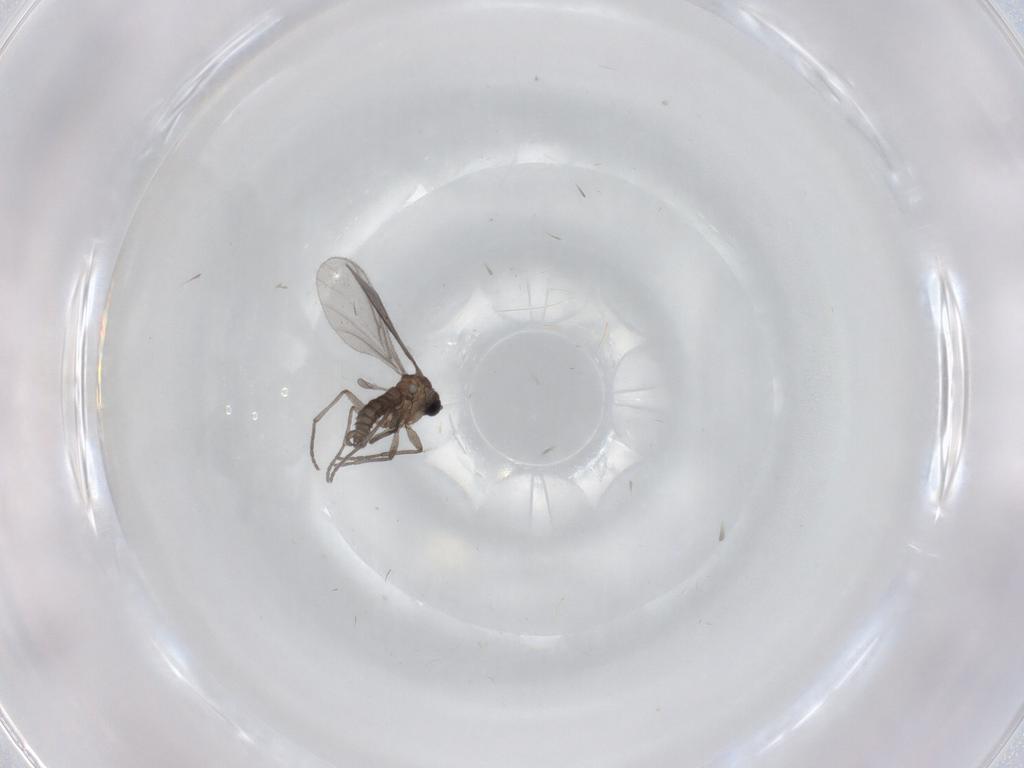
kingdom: Animalia
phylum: Arthropoda
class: Insecta
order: Diptera
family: Sciaridae
